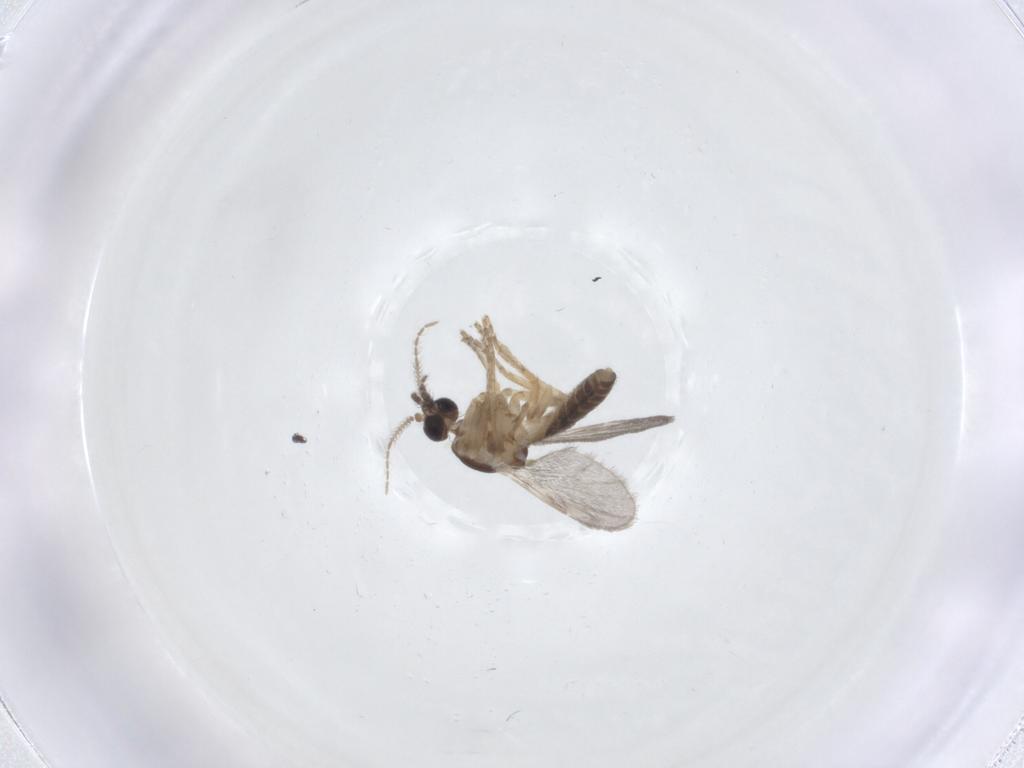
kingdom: Animalia
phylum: Arthropoda
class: Insecta
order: Diptera
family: Ceratopogonidae
